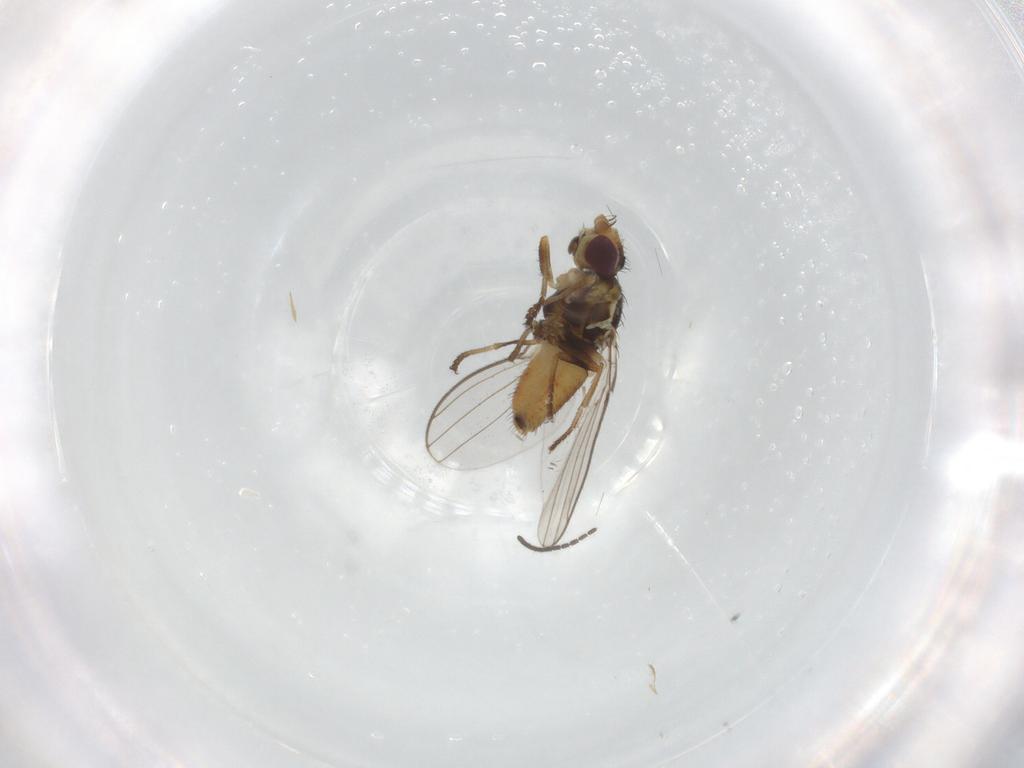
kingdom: Animalia
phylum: Arthropoda
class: Insecta
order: Diptera
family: Chloropidae
